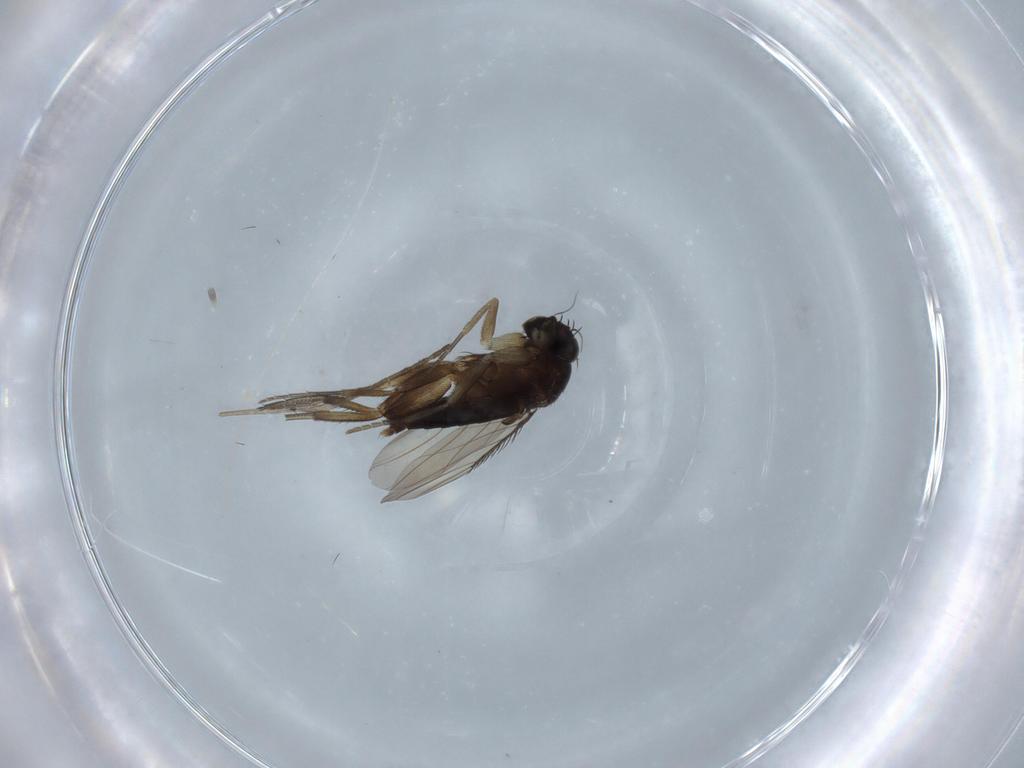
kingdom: Animalia
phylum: Arthropoda
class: Insecta
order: Diptera
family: Phoridae
